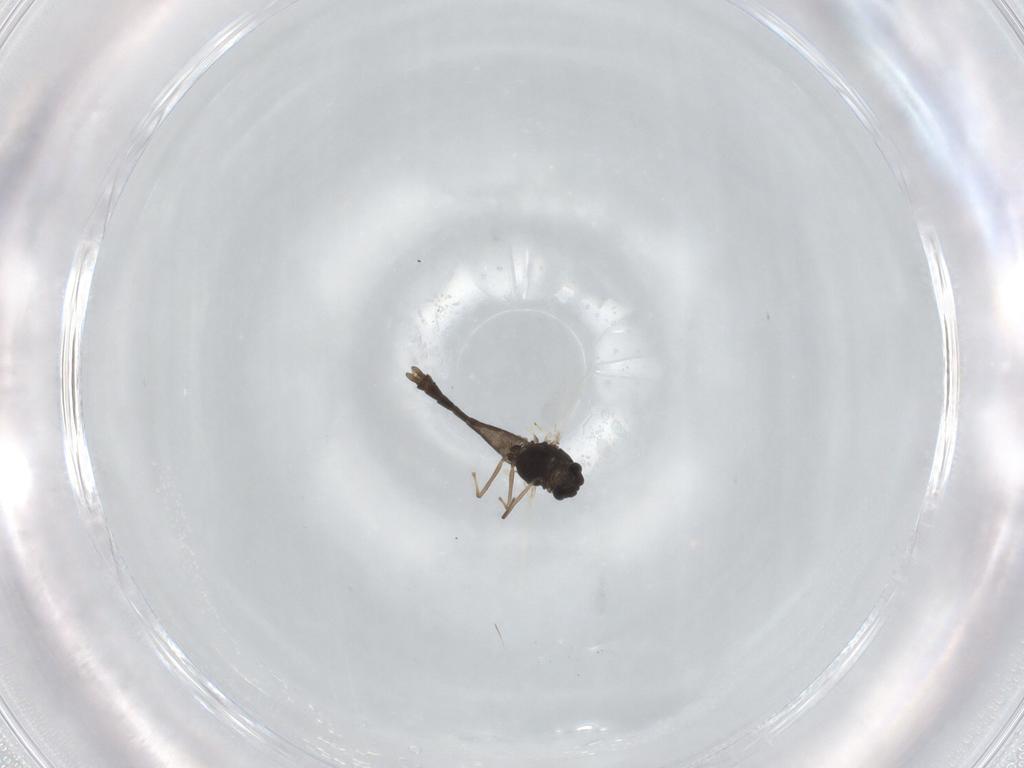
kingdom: Animalia
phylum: Arthropoda
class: Insecta
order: Diptera
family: Chironomidae
